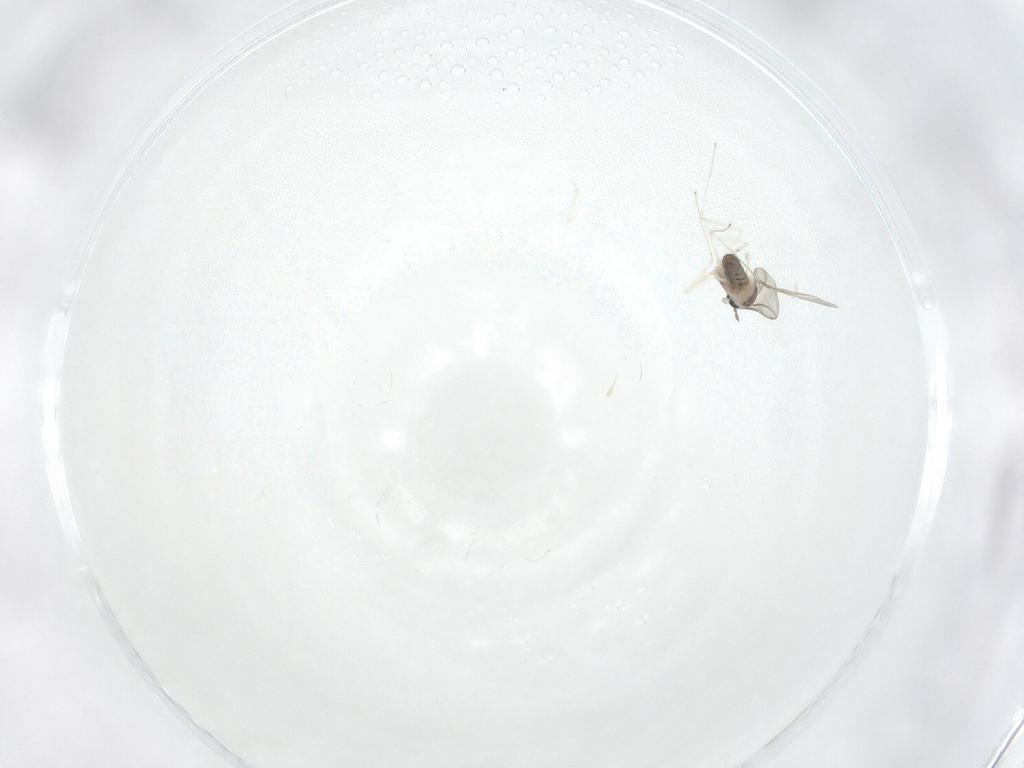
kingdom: Animalia
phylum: Arthropoda
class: Insecta
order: Diptera
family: Cecidomyiidae
